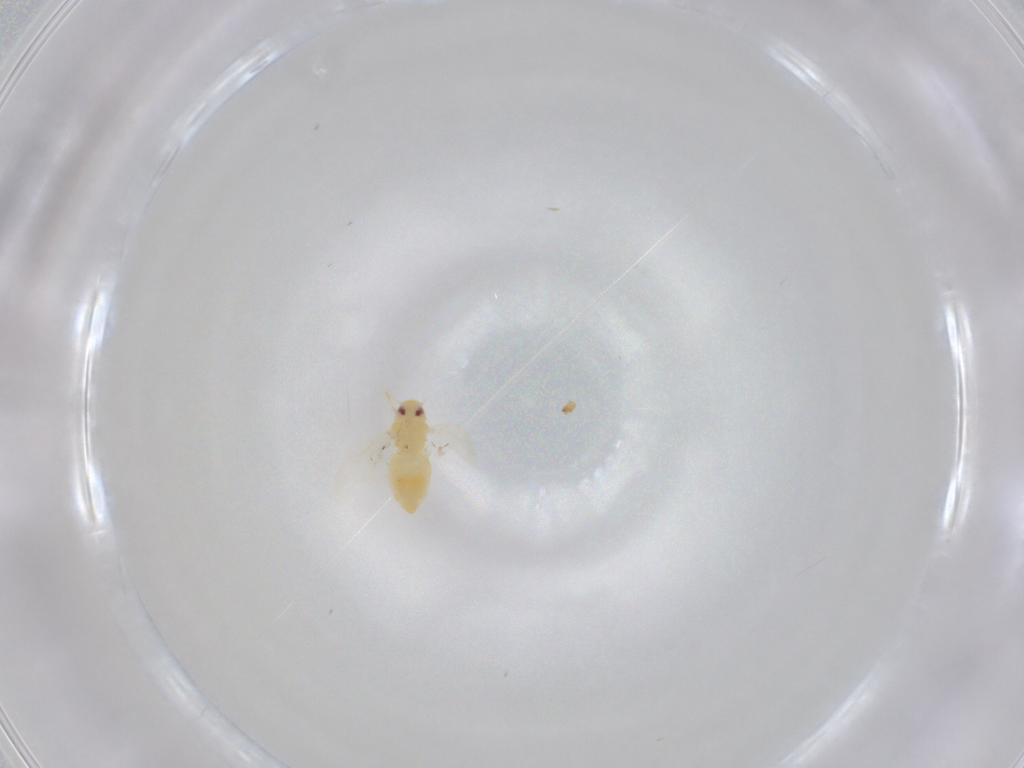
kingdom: Animalia
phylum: Arthropoda
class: Insecta
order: Hemiptera
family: Aleyrodidae
